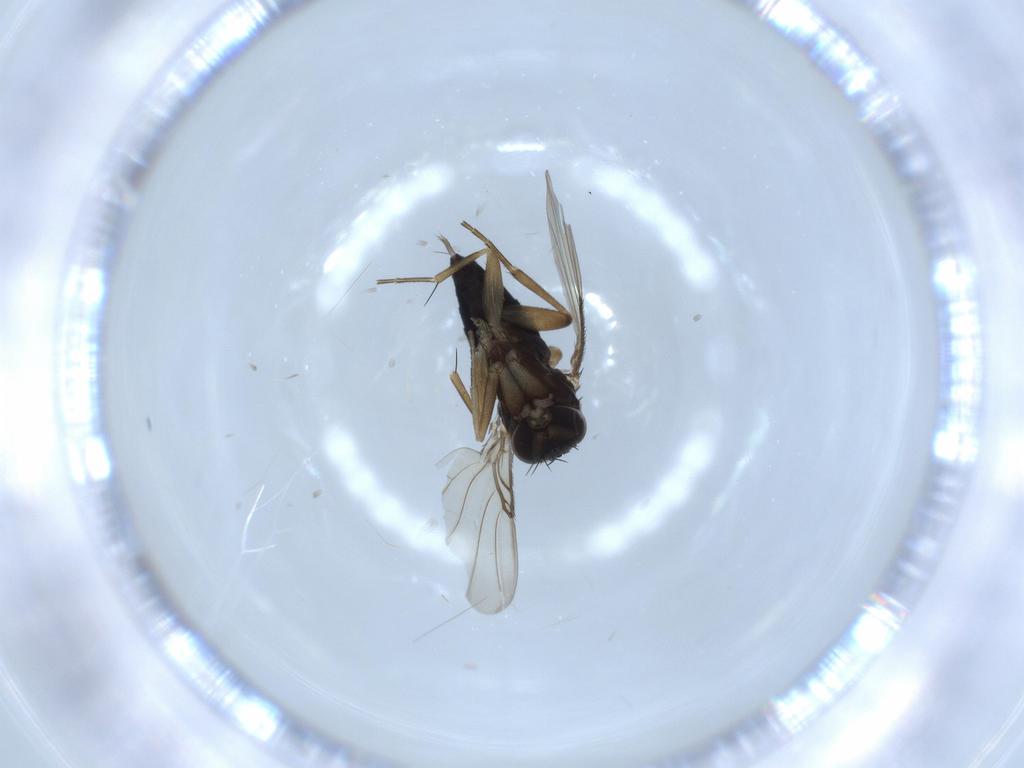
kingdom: Animalia
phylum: Arthropoda
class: Insecta
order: Diptera
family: Phoridae
